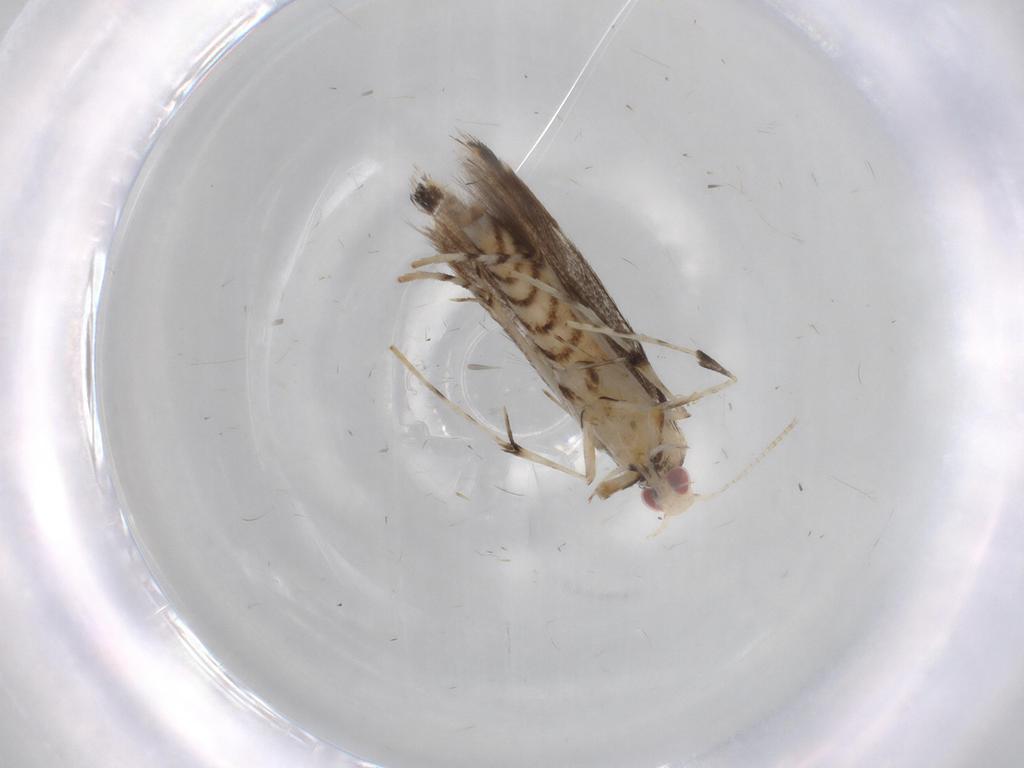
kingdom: Animalia
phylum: Arthropoda
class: Insecta
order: Lepidoptera
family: Gracillariidae
